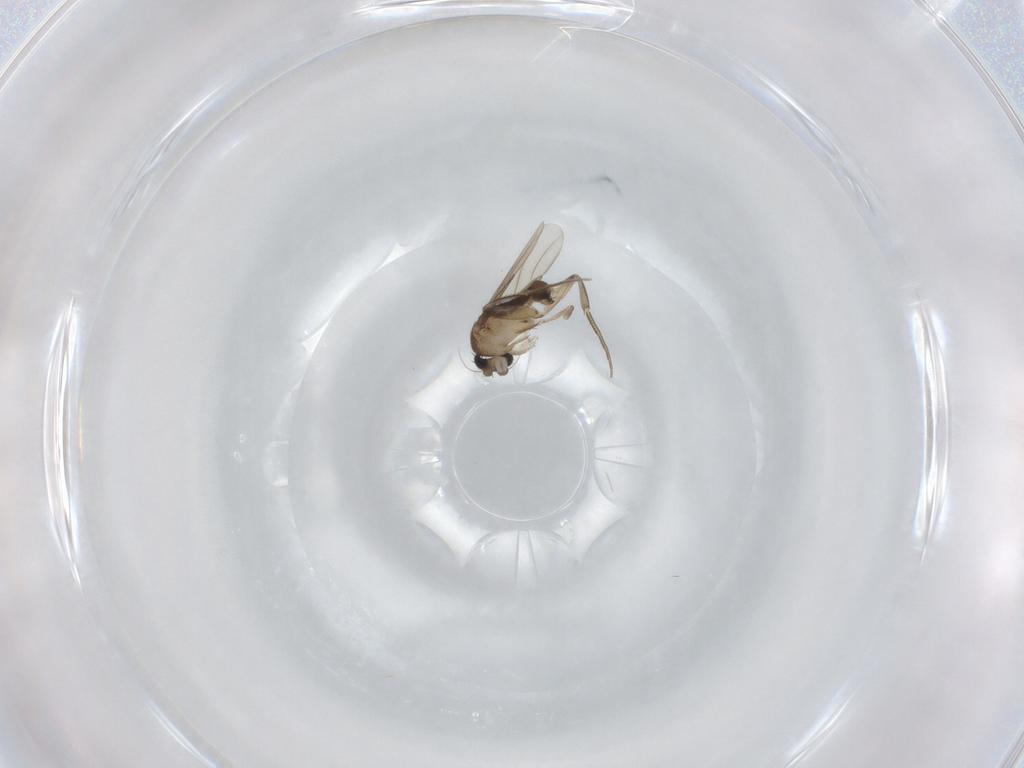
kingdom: Animalia
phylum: Arthropoda
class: Insecta
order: Diptera
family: Phoridae
